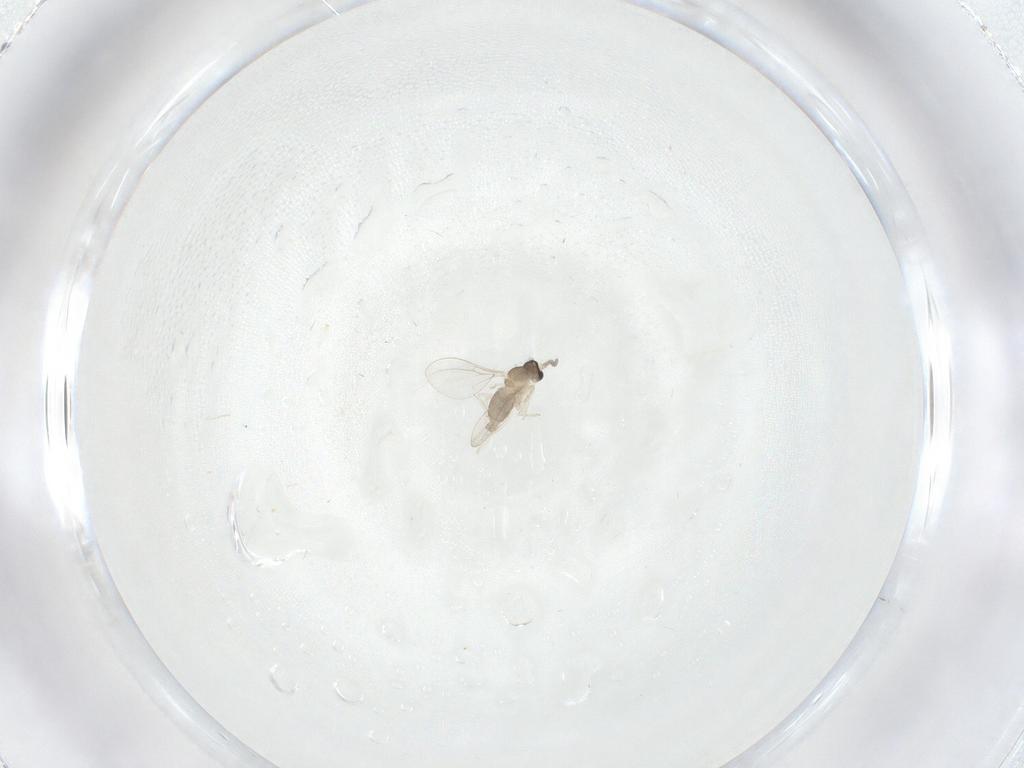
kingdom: Animalia
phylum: Arthropoda
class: Insecta
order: Diptera
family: Cecidomyiidae
